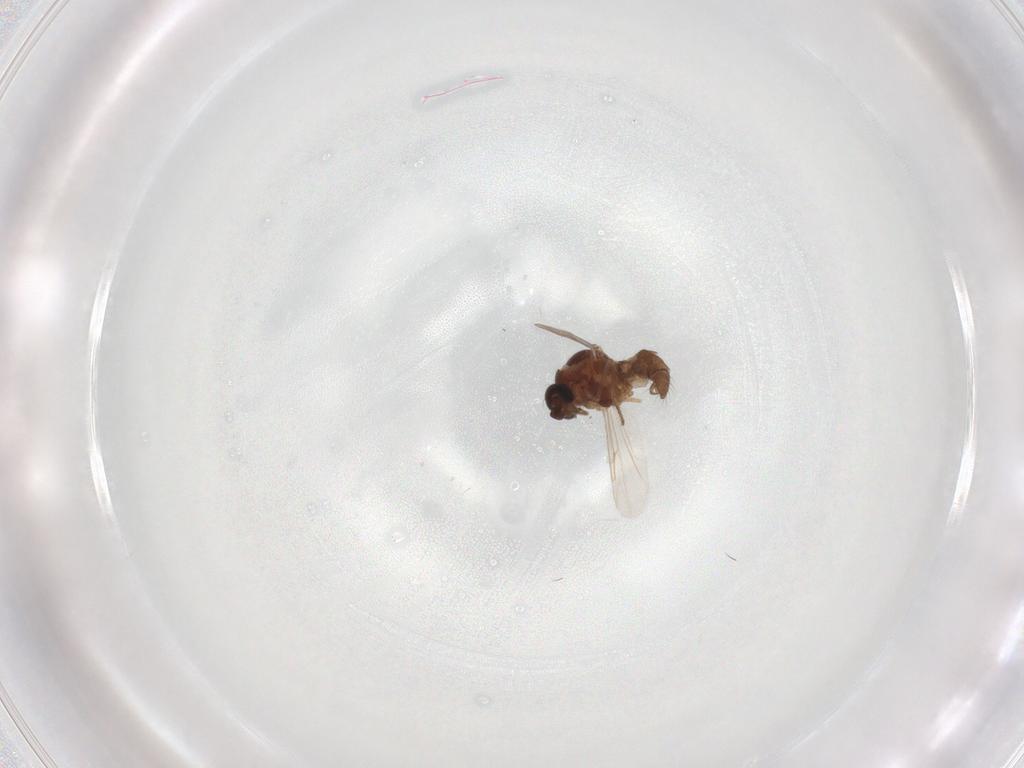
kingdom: Animalia
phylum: Arthropoda
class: Insecta
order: Diptera
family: Ceratopogonidae
